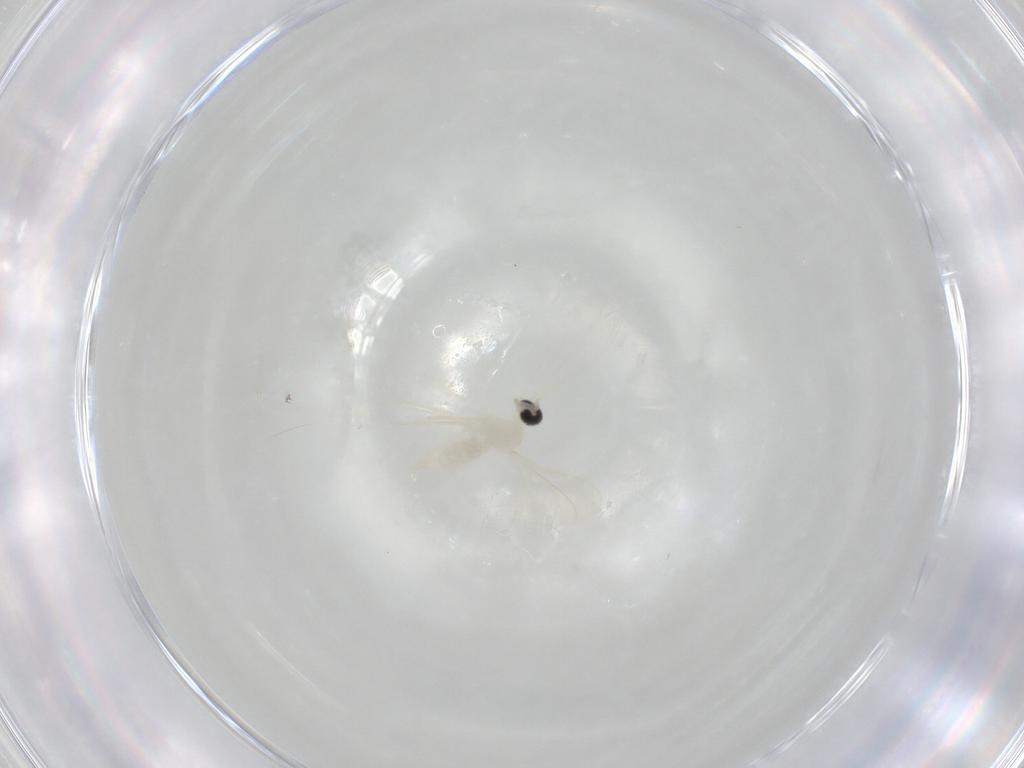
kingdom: Animalia
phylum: Arthropoda
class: Insecta
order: Diptera
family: Cecidomyiidae
